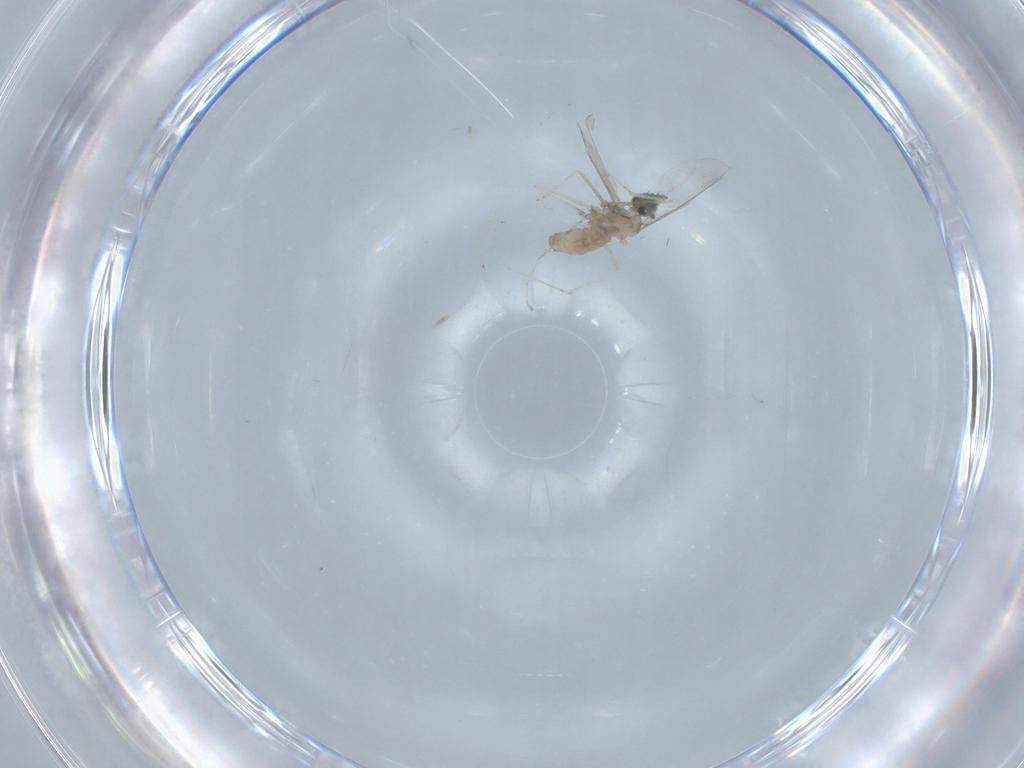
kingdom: Animalia
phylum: Arthropoda
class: Insecta
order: Diptera
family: Cecidomyiidae
